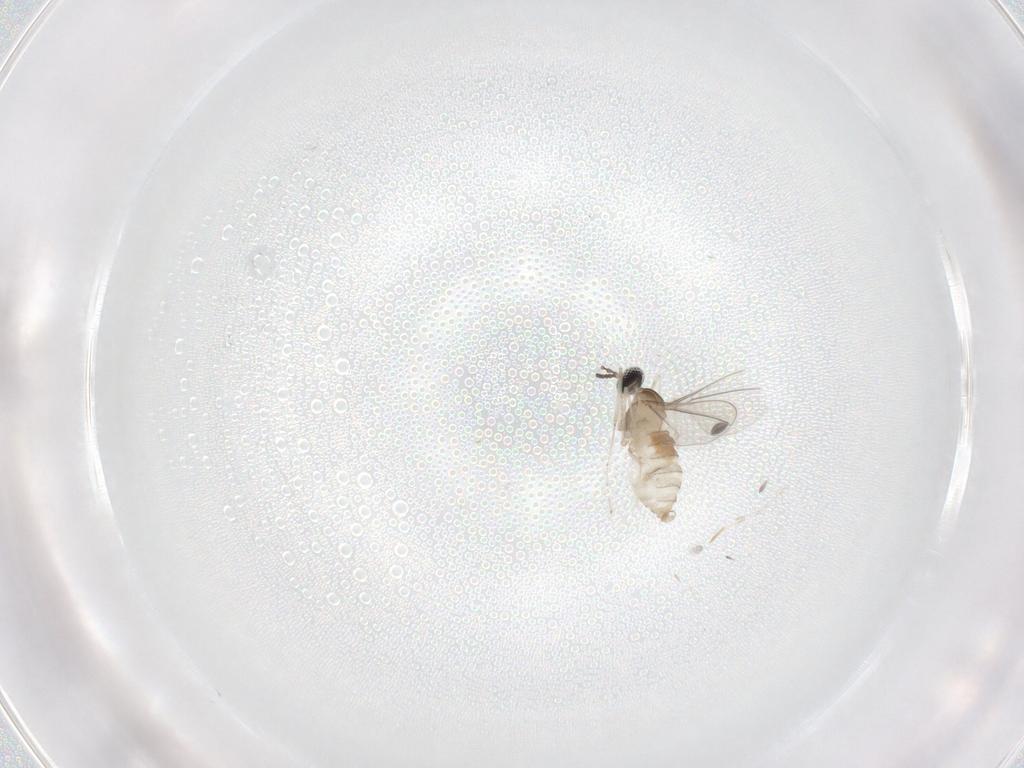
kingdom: Animalia
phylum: Arthropoda
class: Insecta
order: Diptera
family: Cecidomyiidae
